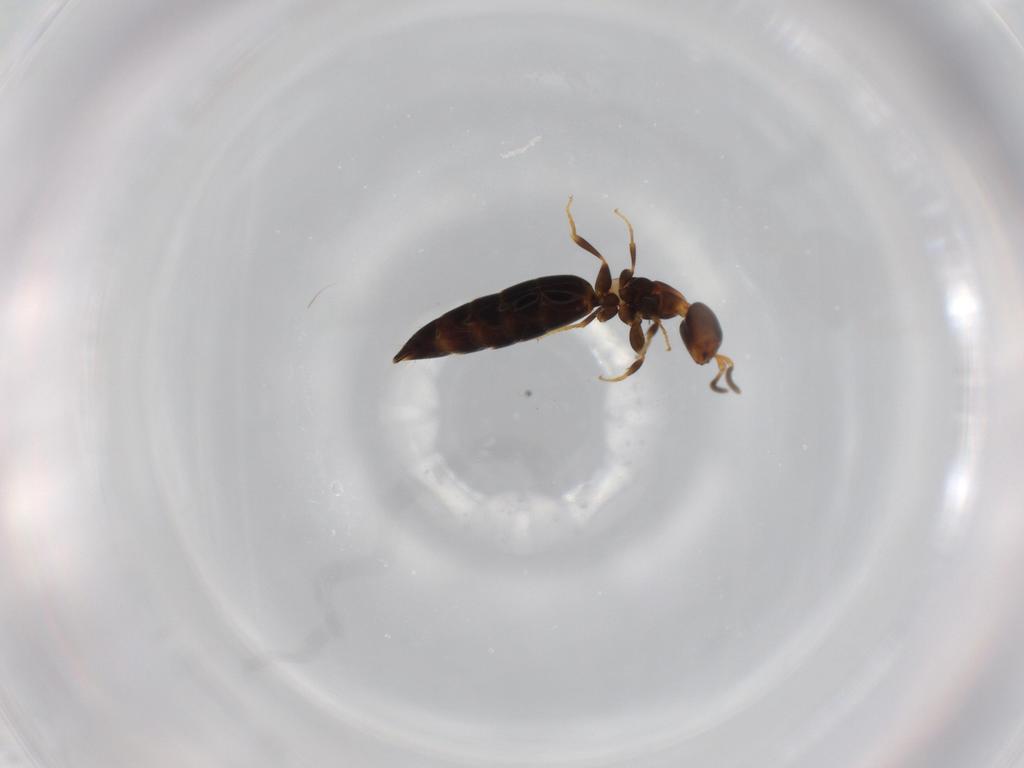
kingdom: Animalia
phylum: Arthropoda
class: Insecta
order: Hymenoptera
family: Bethylidae
